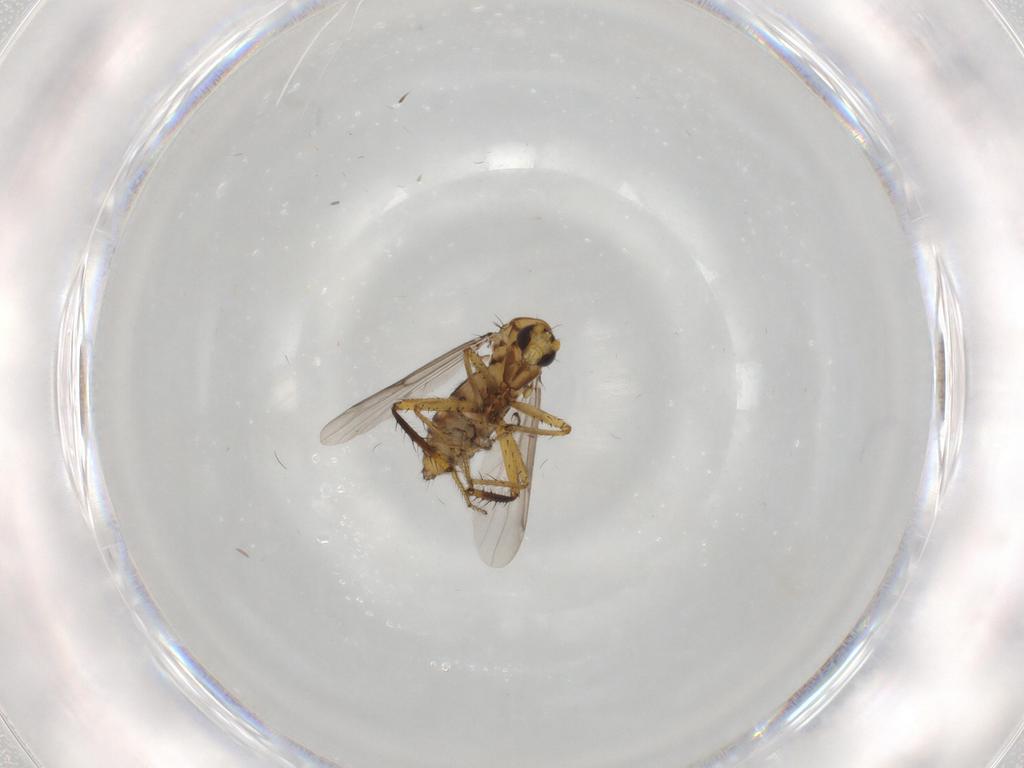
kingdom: Animalia
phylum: Arthropoda
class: Insecta
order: Diptera
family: Ceratopogonidae
